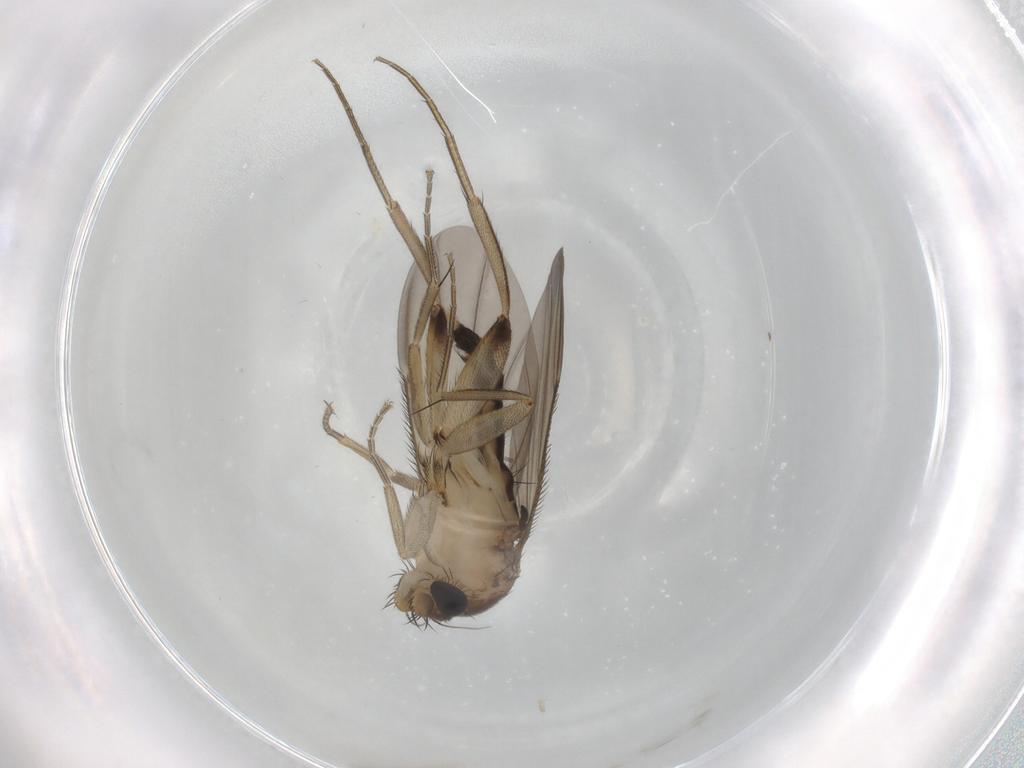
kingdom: Animalia
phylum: Arthropoda
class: Insecta
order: Diptera
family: Phoridae
